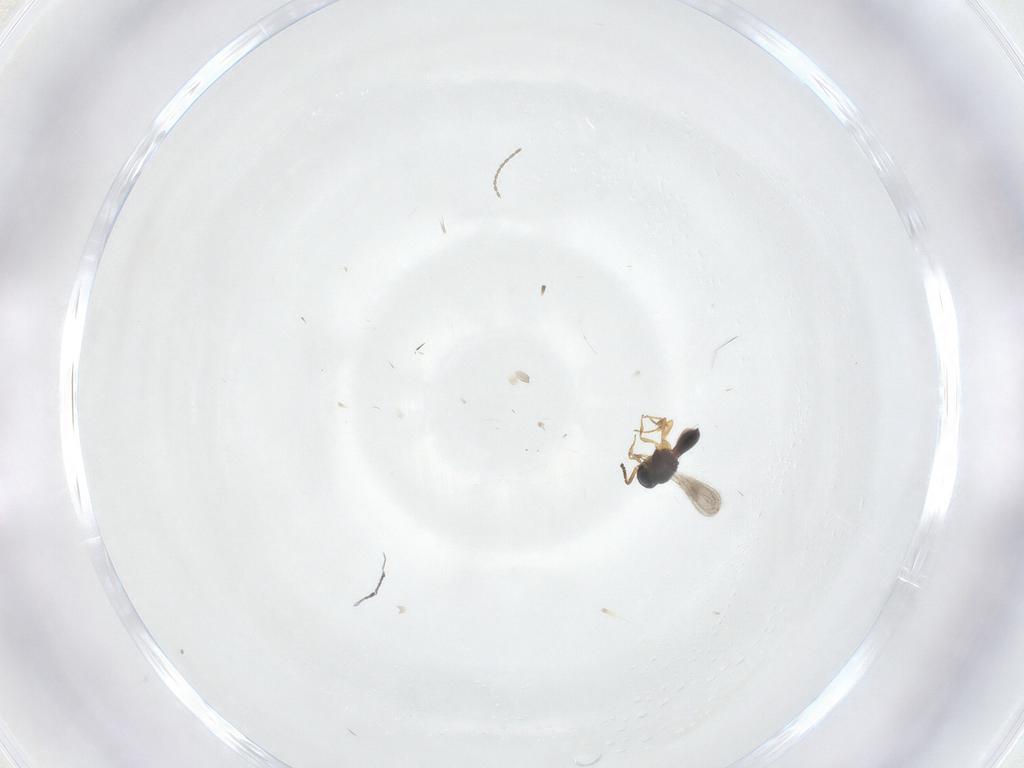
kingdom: Animalia
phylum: Arthropoda
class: Insecta
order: Hymenoptera
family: Scelionidae
